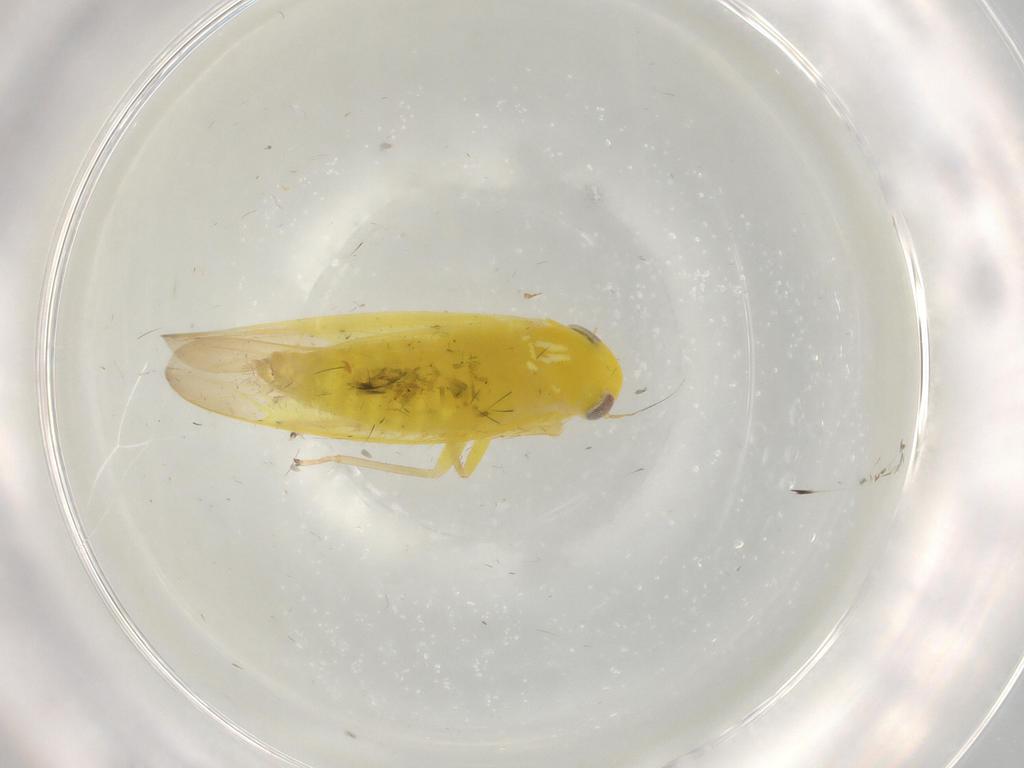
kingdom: Animalia
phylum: Arthropoda
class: Insecta
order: Hemiptera
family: Cicadellidae
